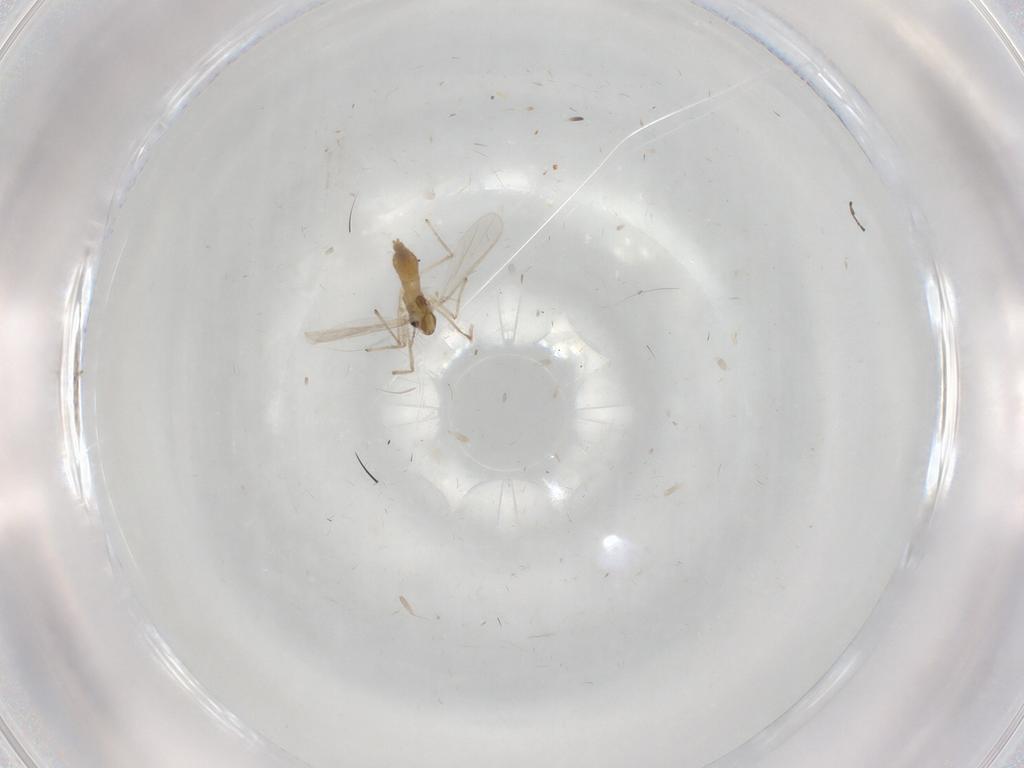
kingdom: Animalia
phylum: Arthropoda
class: Insecta
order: Diptera
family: Chironomidae
